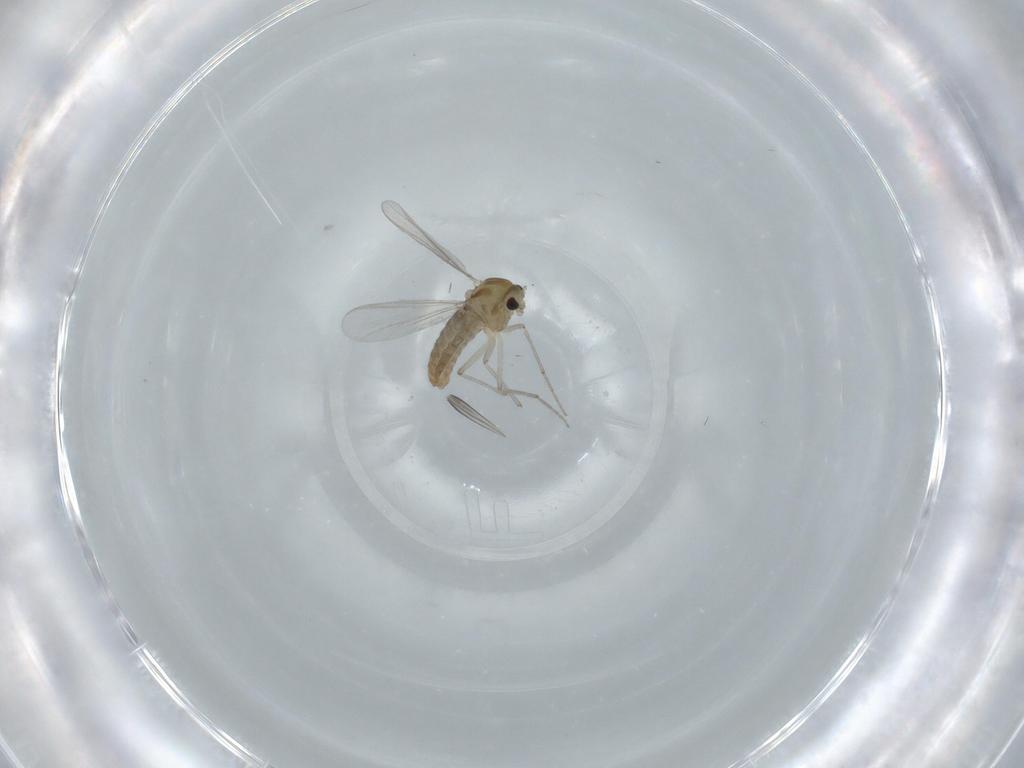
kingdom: Animalia
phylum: Arthropoda
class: Insecta
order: Diptera
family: Chironomidae
